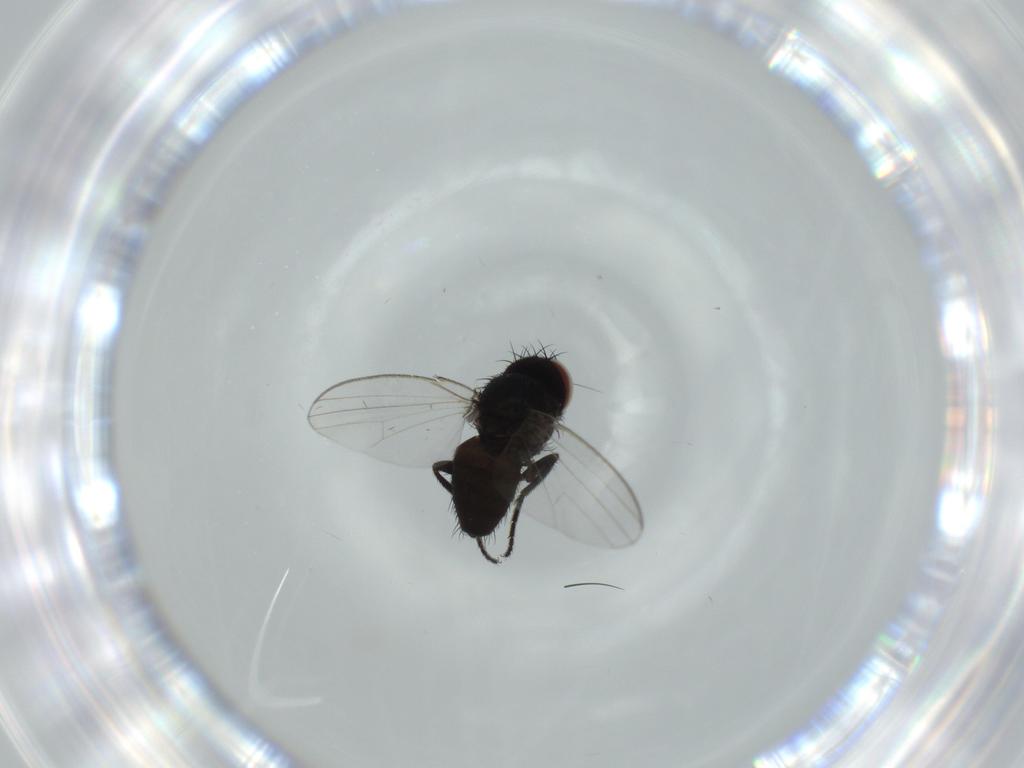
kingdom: Animalia
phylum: Arthropoda
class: Insecta
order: Diptera
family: Milichiidae
